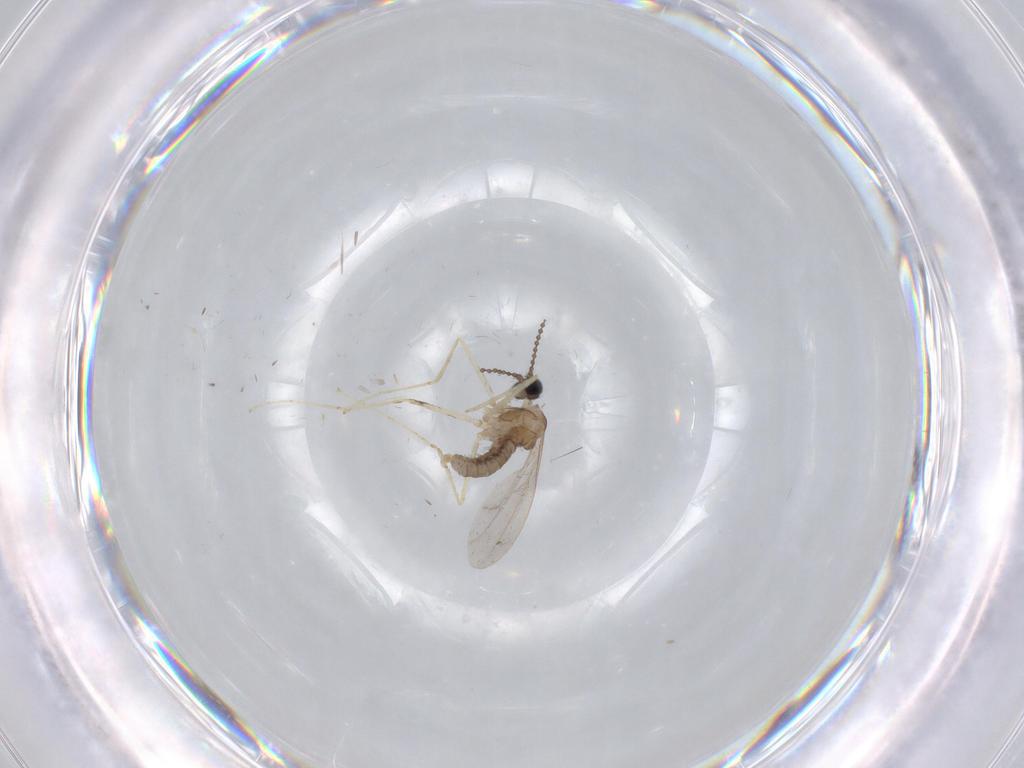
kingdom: Animalia
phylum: Arthropoda
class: Insecta
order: Diptera
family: Cecidomyiidae
